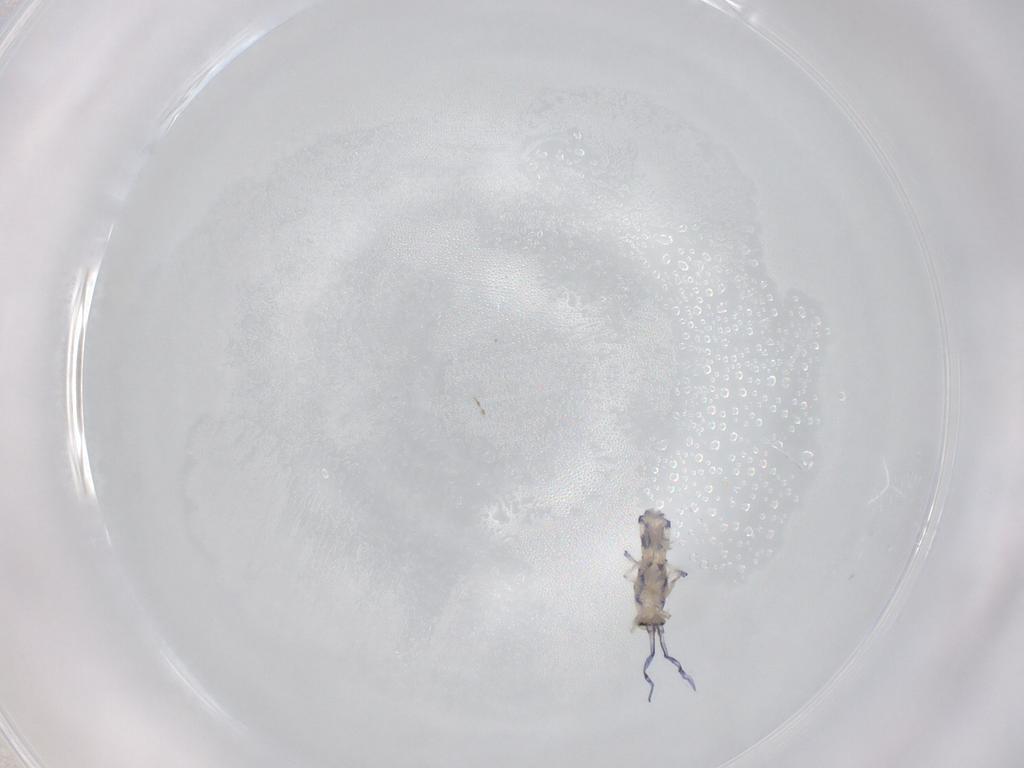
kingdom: Animalia
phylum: Arthropoda
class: Collembola
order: Entomobryomorpha
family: Entomobryidae
